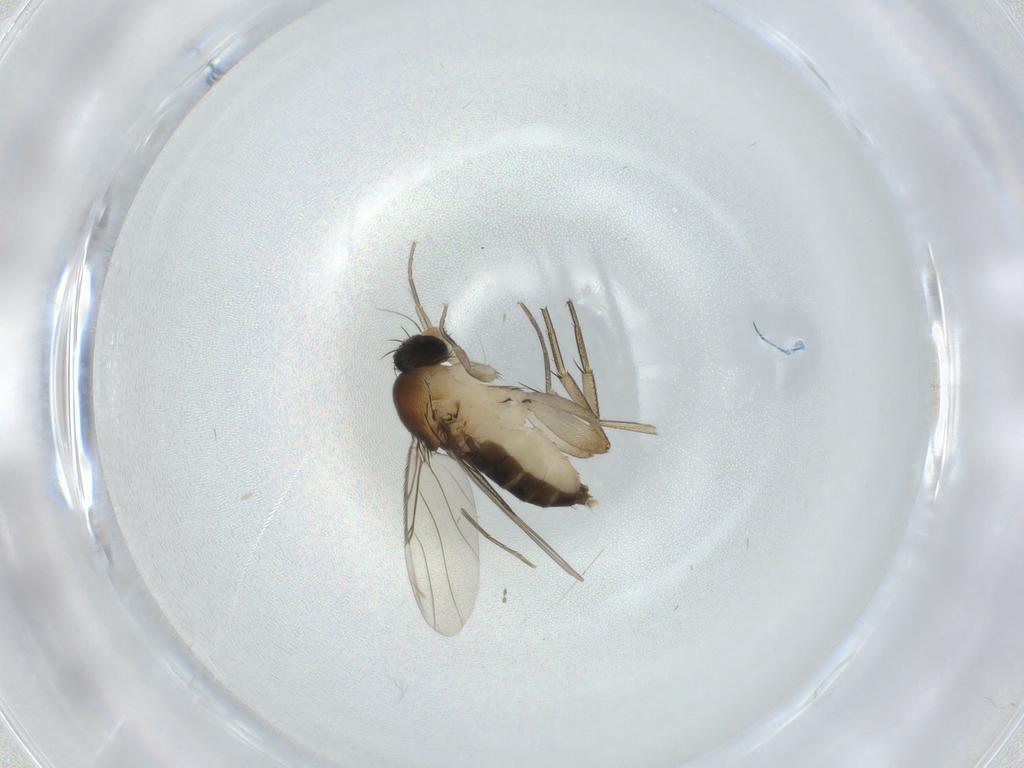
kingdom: Animalia
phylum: Arthropoda
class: Insecta
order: Diptera
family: Phoridae
